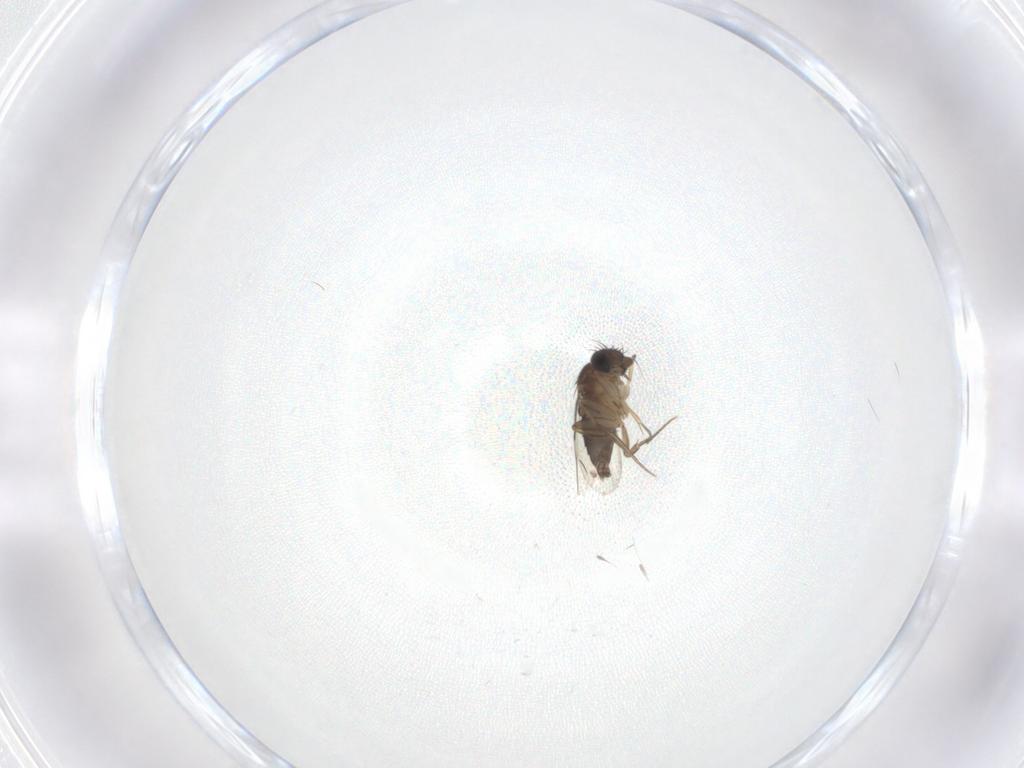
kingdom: Animalia
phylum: Arthropoda
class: Insecta
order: Diptera
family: Phoridae
